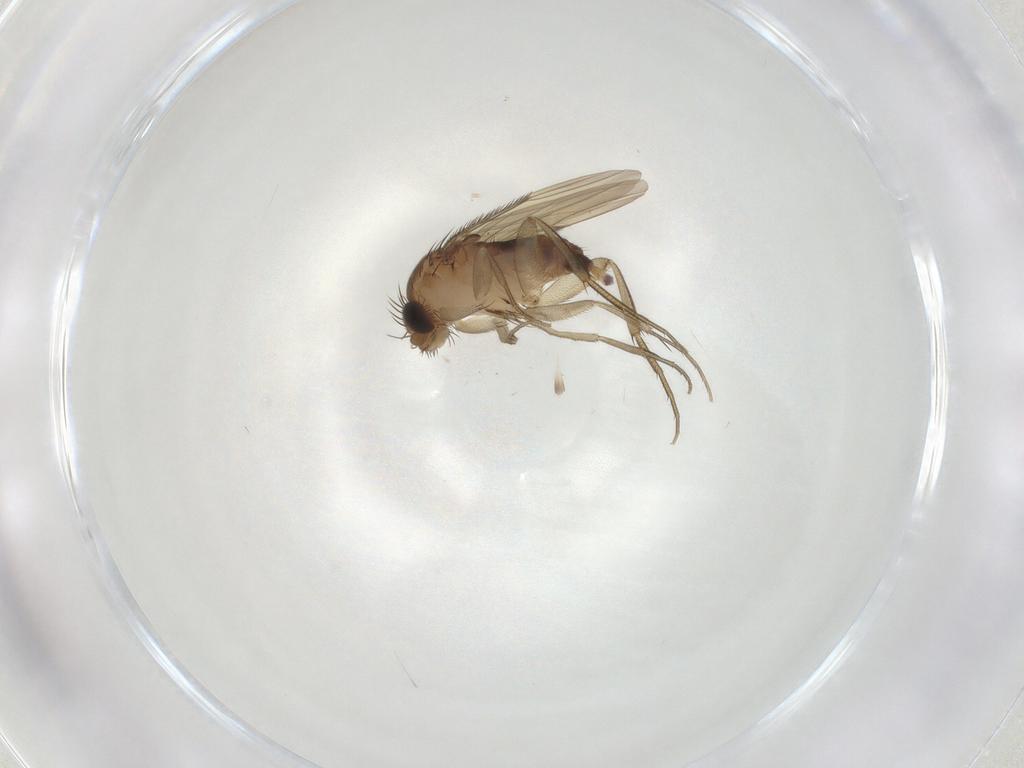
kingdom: Animalia
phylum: Arthropoda
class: Insecta
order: Diptera
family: Phoridae
